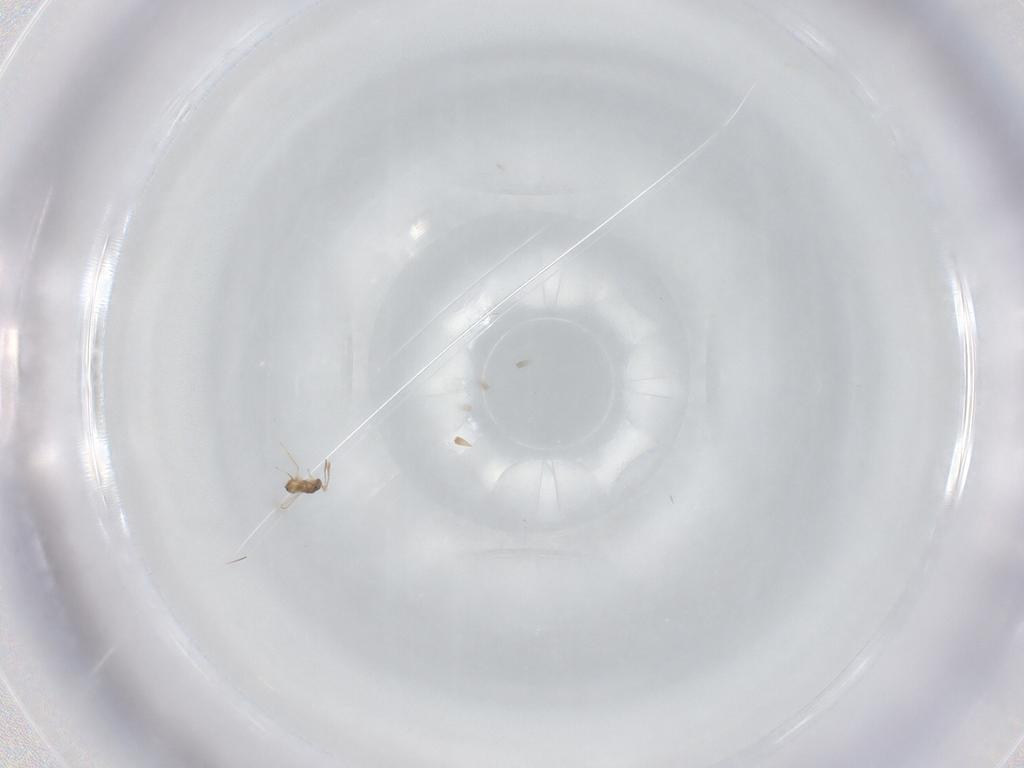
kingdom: Animalia
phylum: Arthropoda
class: Insecta
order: Hymenoptera
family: Mymaridae
